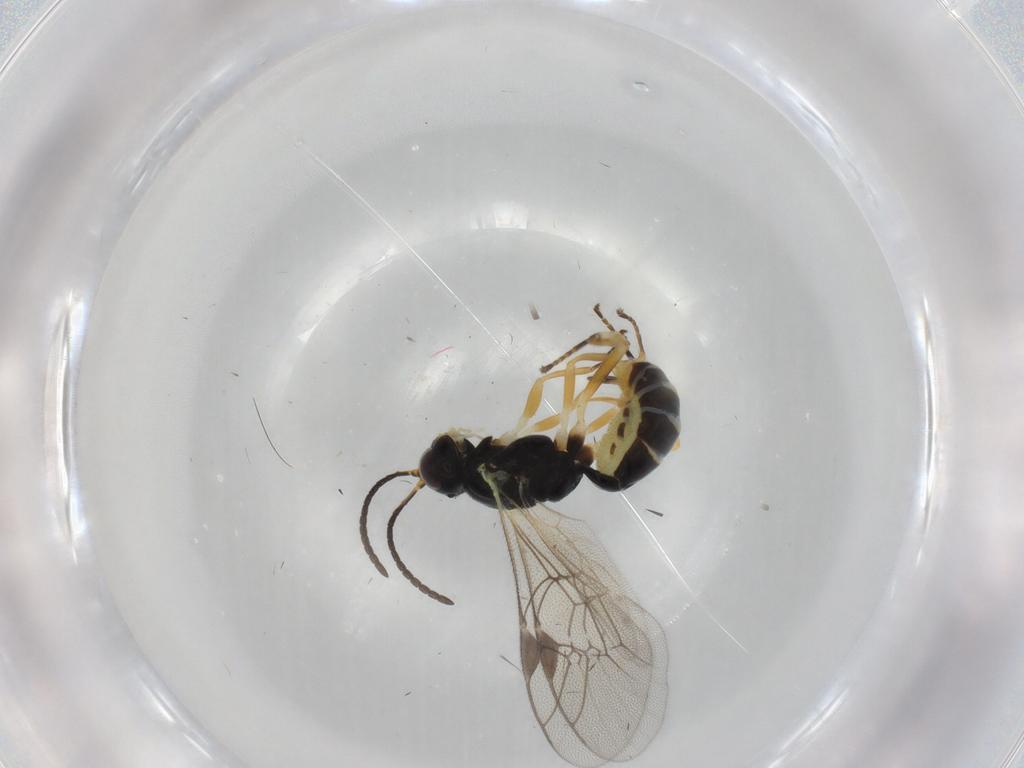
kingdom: Animalia
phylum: Arthropoda
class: Insecta
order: Hymenoptera
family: Ichneumonidae
